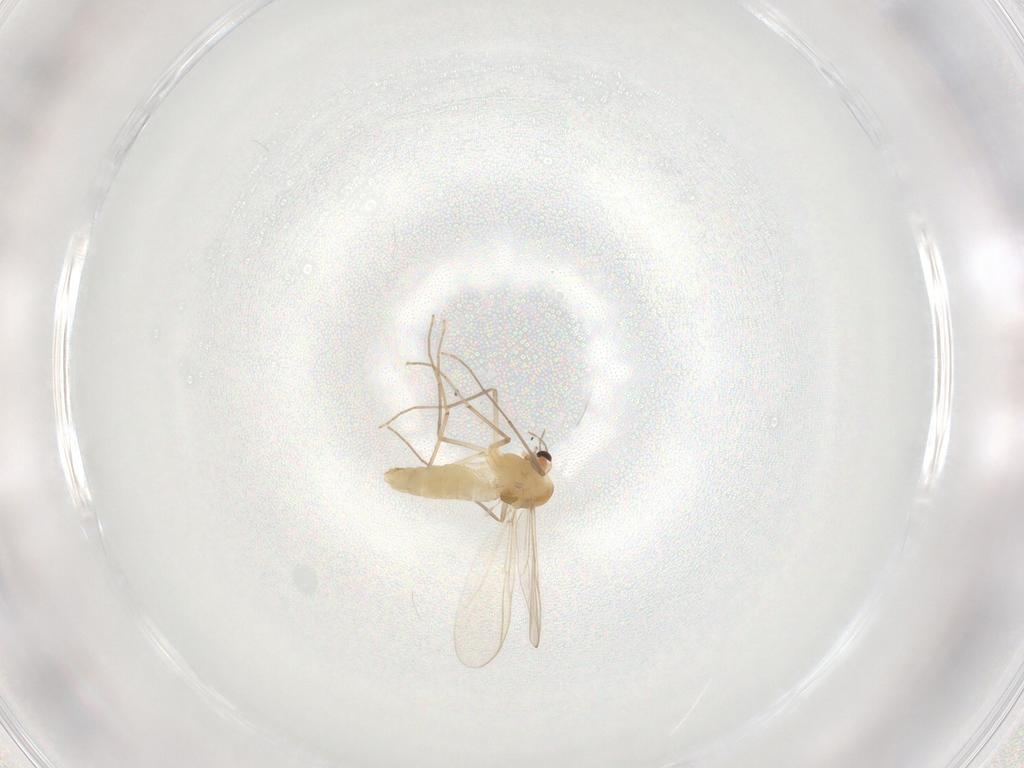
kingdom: Animalia
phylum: Arthropoda
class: Insecta
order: Diptera
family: Chironomidae
